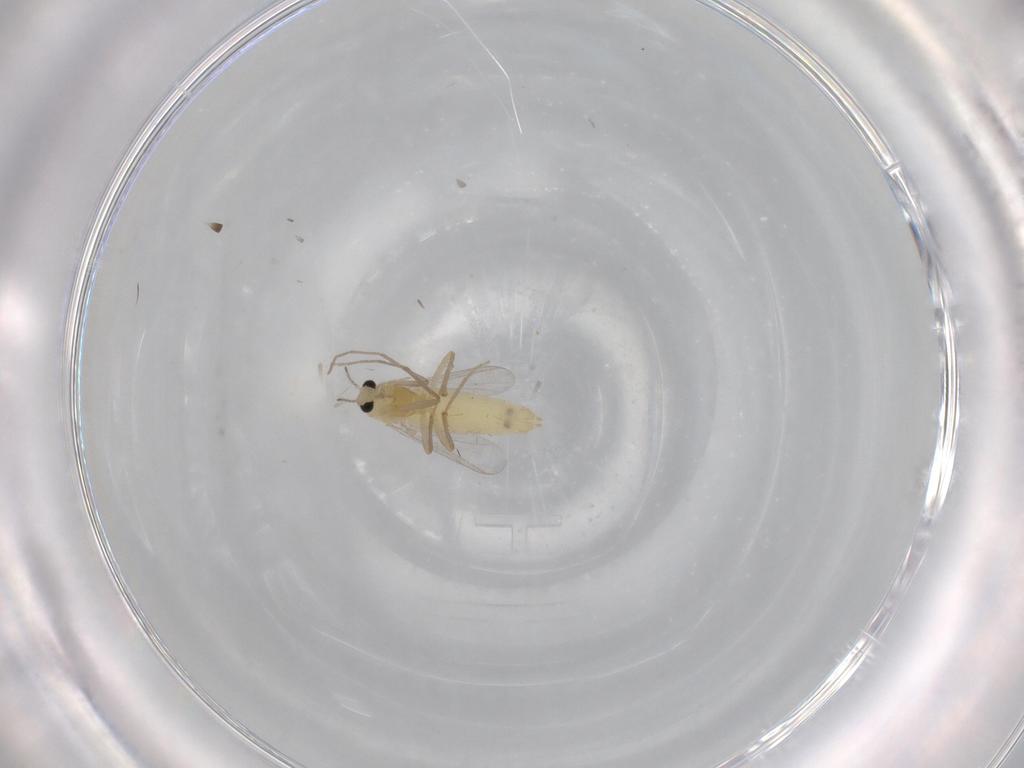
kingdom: Animalia
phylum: Arthropoda
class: Insecta
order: Diptera
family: Chironomidae
